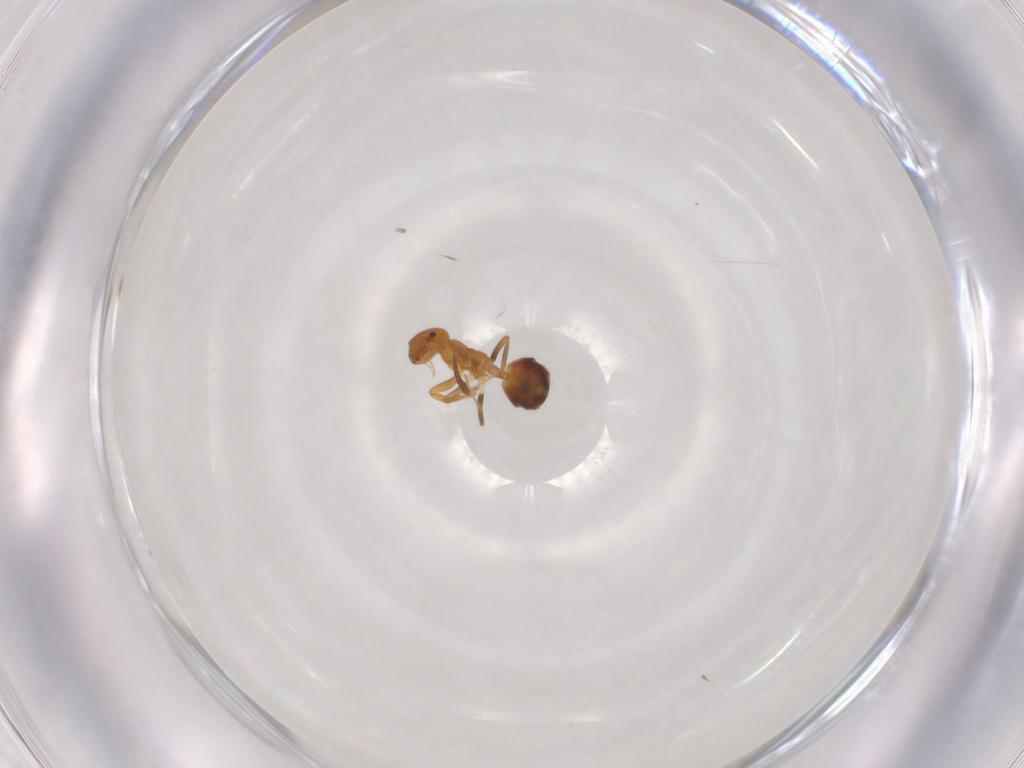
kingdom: Animalia
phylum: Arthropoda
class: Insecta
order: Hymenoptera
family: Formicidae
